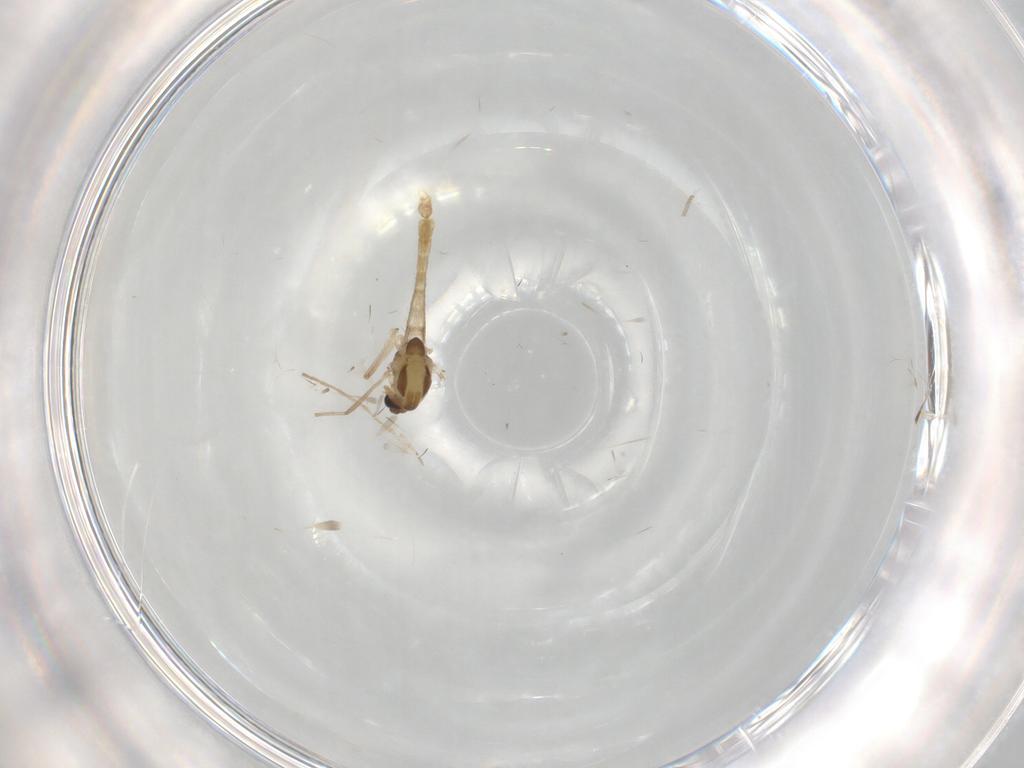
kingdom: Animalia
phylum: Arthropoda
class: Insecta
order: Diptera
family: Chironomidae
